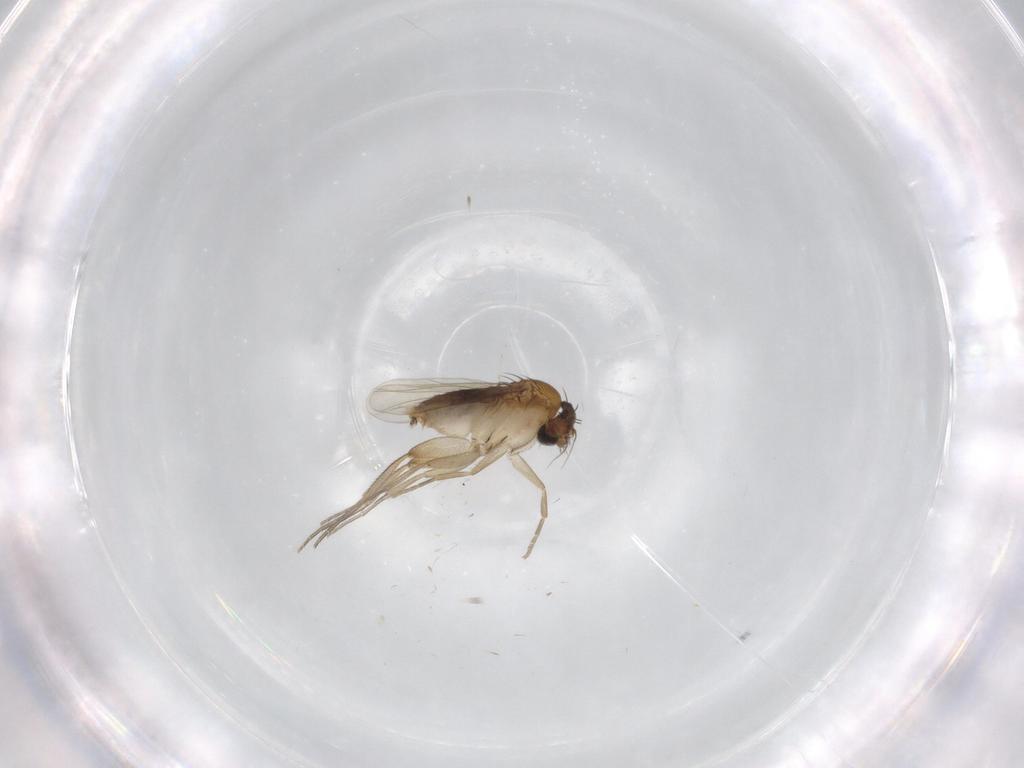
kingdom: Animalia
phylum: Arthropoda
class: Insecta
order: Diptera
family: Phoridae
